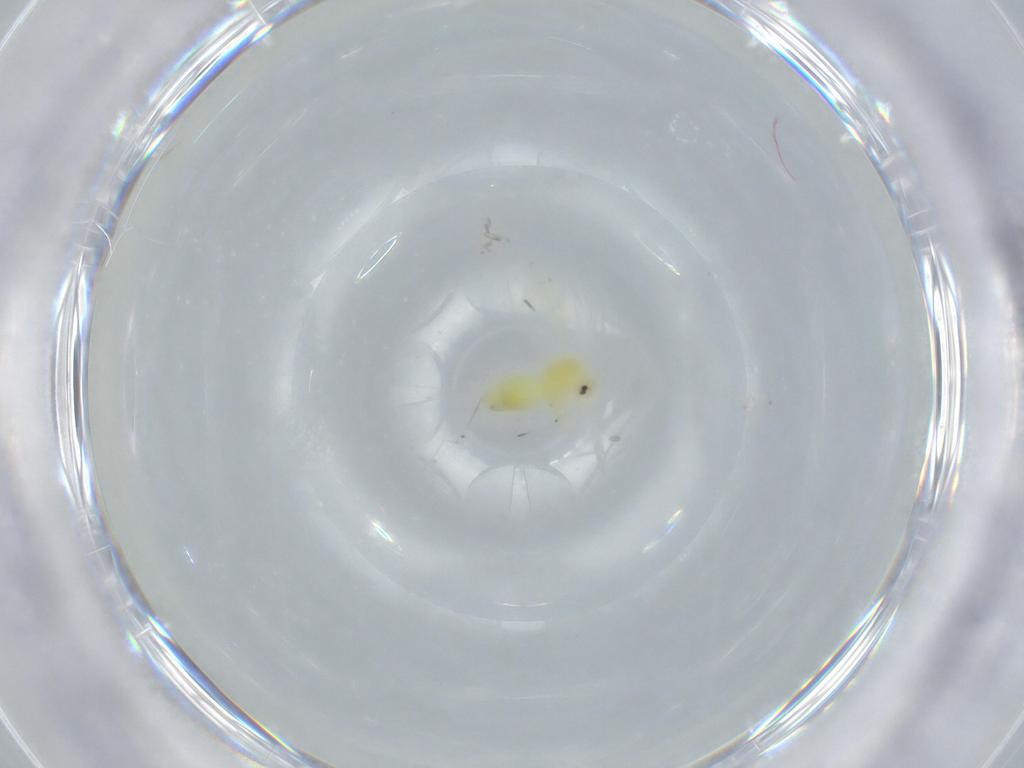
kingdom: Animalia
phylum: Arthropoda
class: Insecta
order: Hemiptera
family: Aleyrodidae
